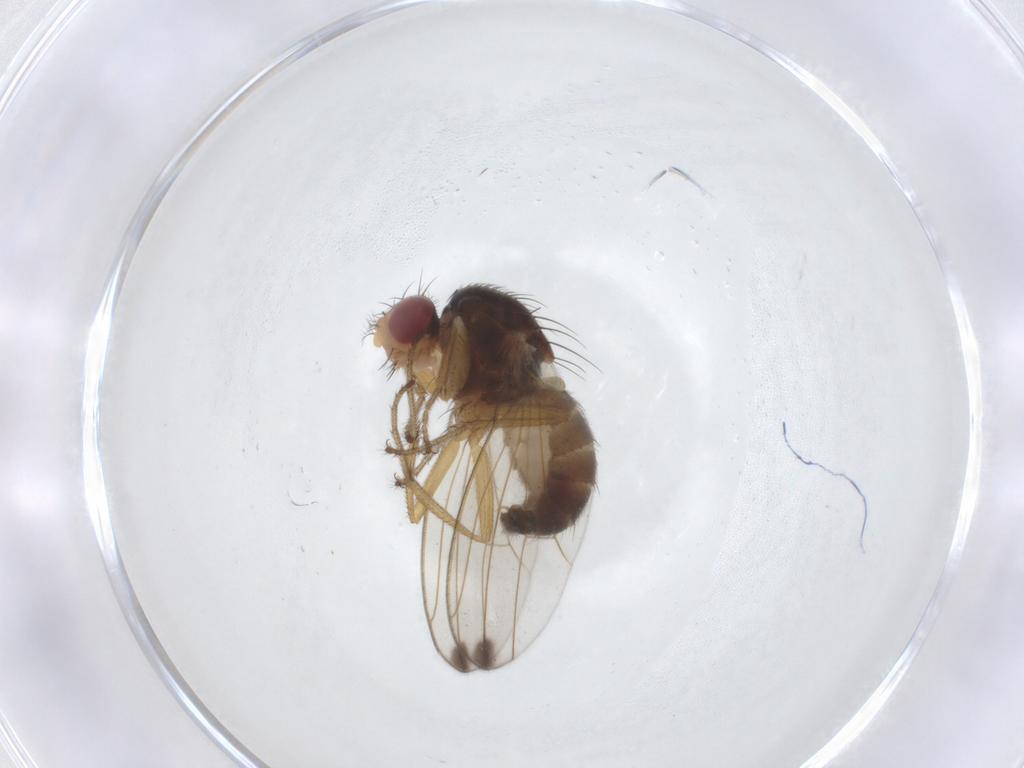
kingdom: Animalia
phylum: Arthropoda
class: Insecta
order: Diptera
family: Drosophilidae
